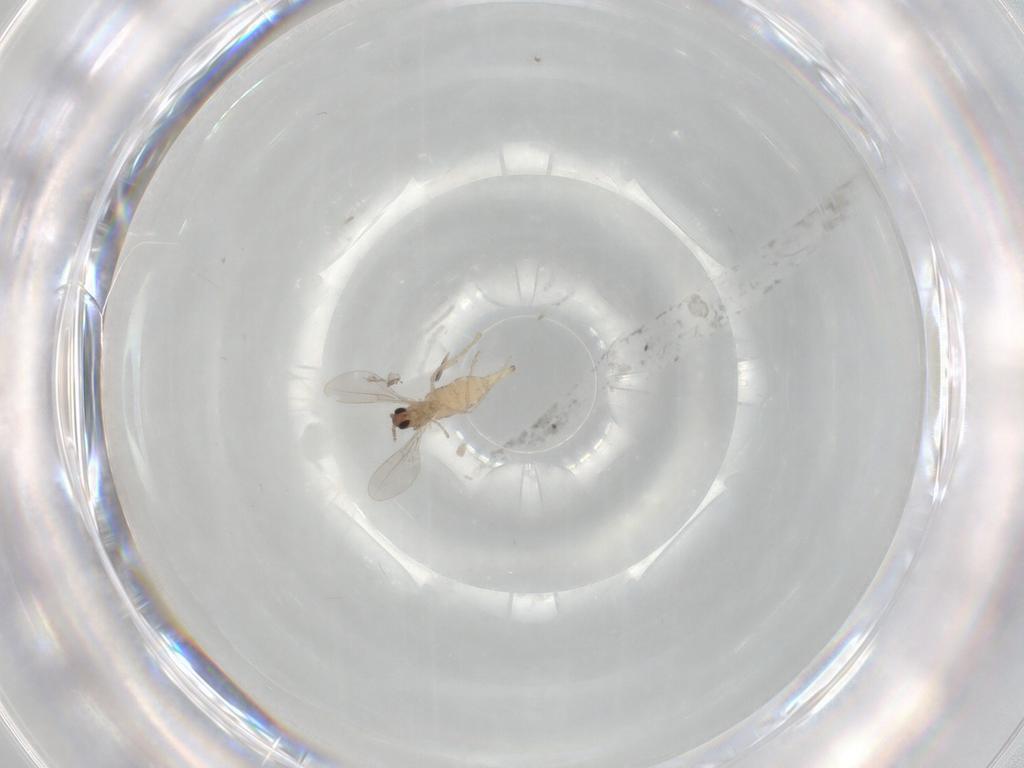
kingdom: Animalia
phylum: Arthropoda
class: Insecta
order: Diptera
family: Cecidomyiidae
